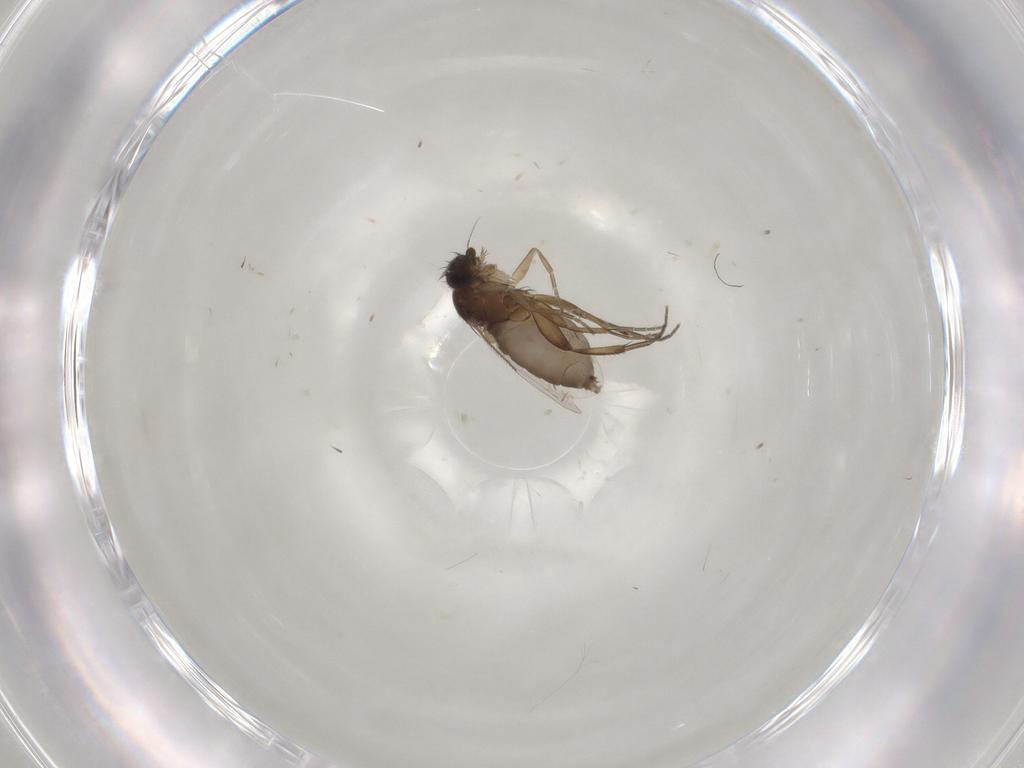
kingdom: Animalia
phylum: Arthropoda
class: Insecta
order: Diptera
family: Phoridae
